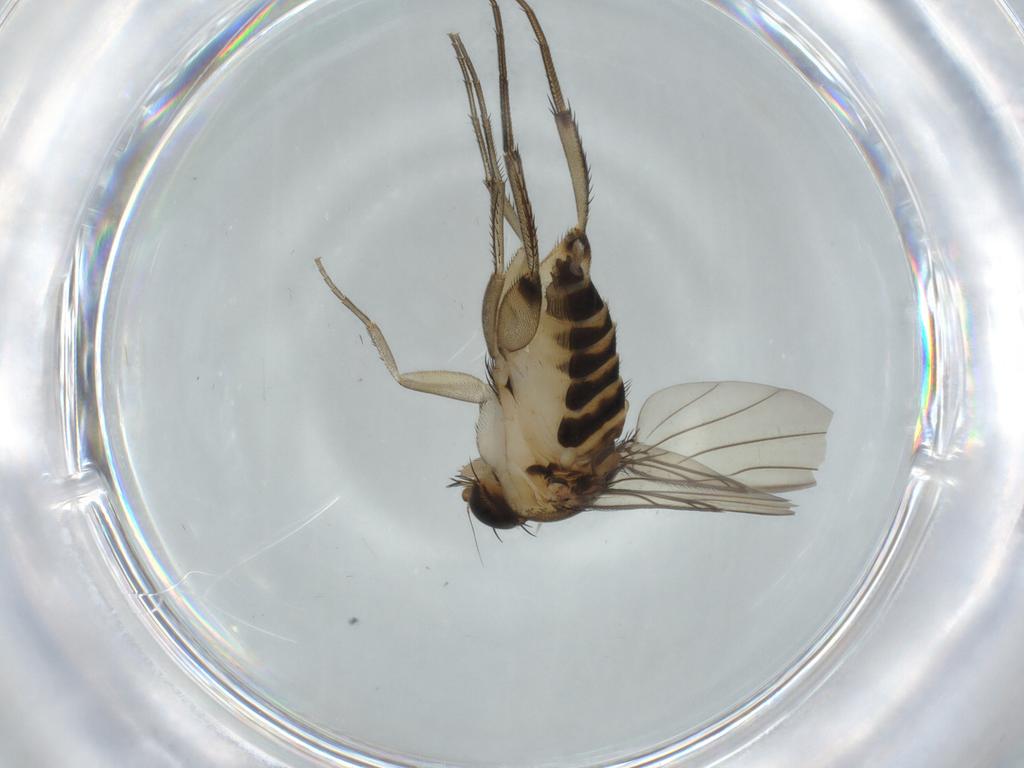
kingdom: Animalia
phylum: Arthropoda
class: Insecta
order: Diptera
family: Phoridae
